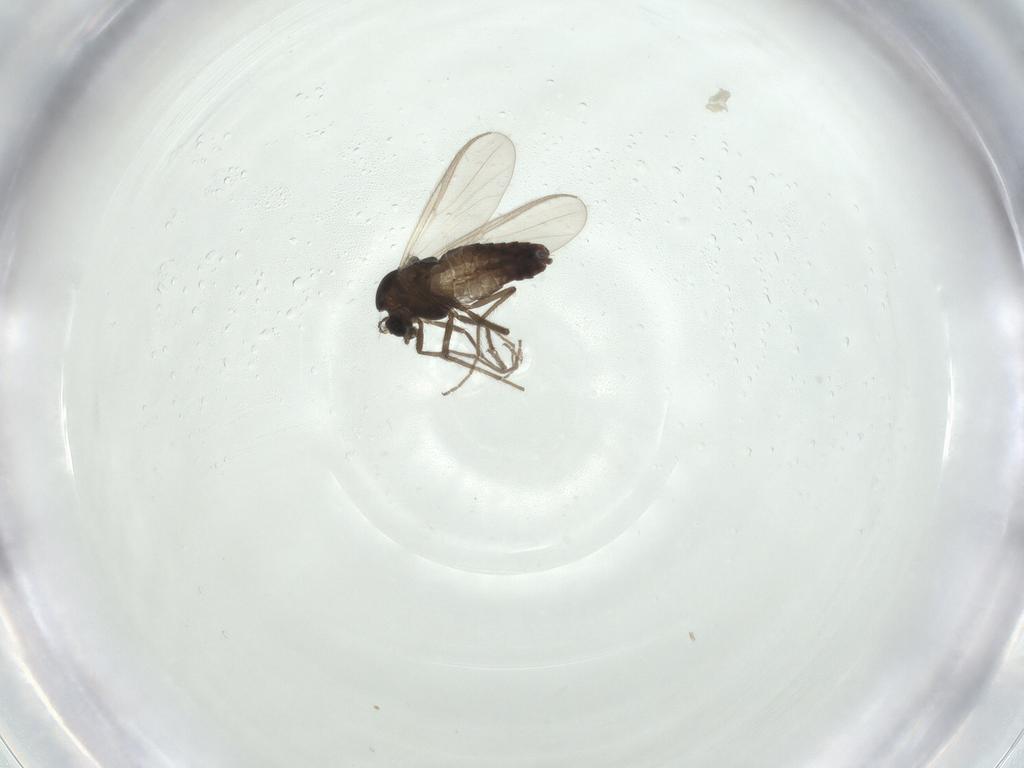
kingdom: Animalia
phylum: Arthropoda
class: Insecta
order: Diptera
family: Chironomidae
